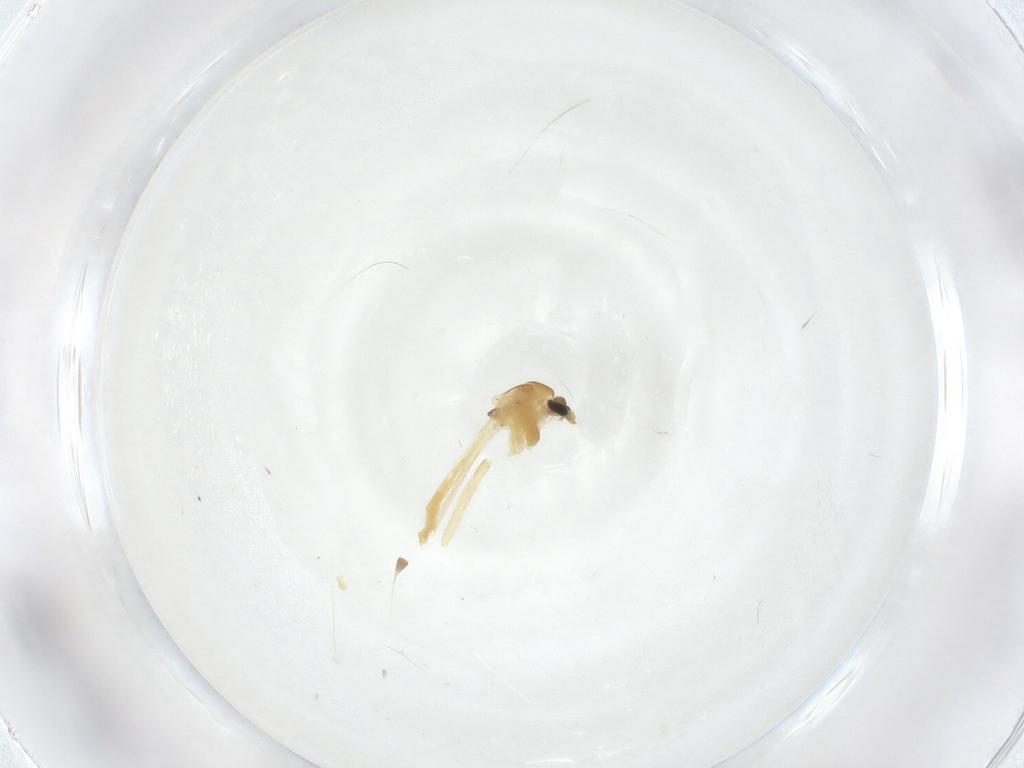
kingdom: Animalia
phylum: Arthropoda
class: Insecta
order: Diptera
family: Chironomidae
